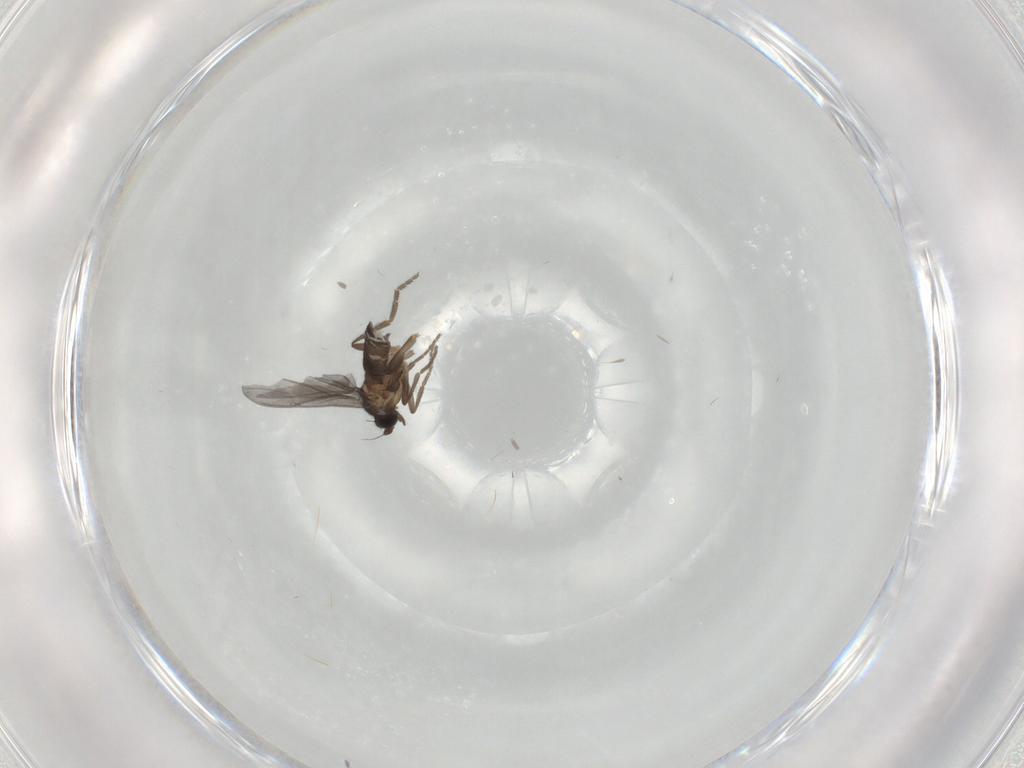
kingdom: Animalia
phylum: Arthropoda
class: Insecta
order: Diptera
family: Phoridae
